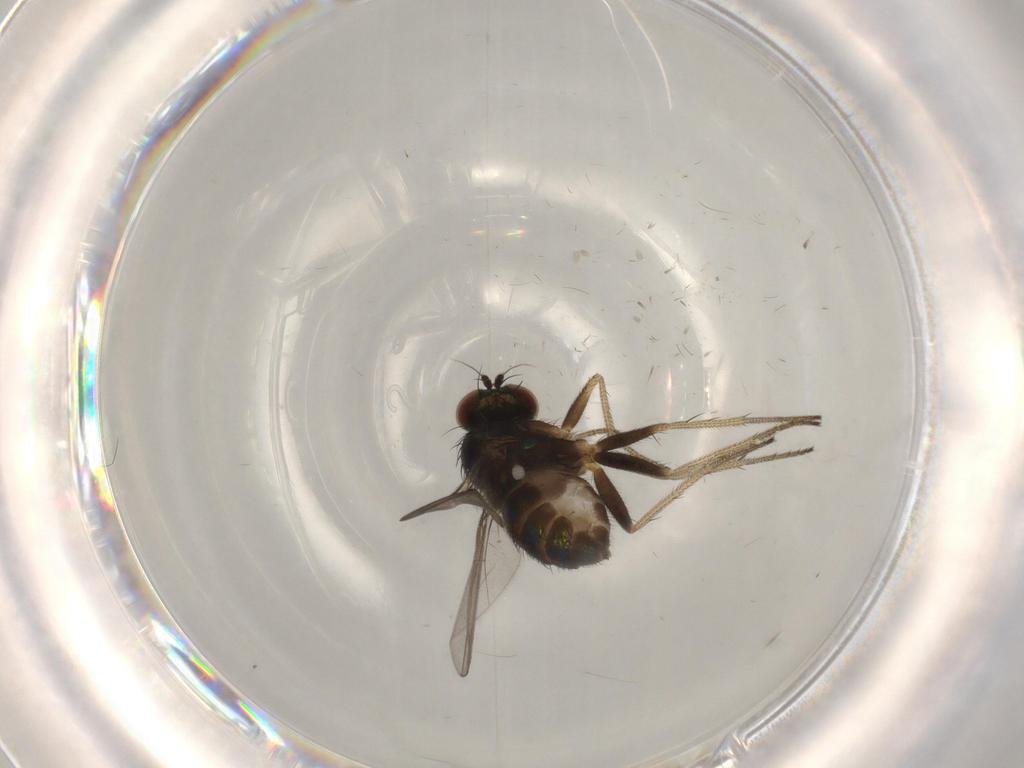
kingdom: Animalia
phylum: Arthropoda
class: Insecta
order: Diptera
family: Dolichopodidae
